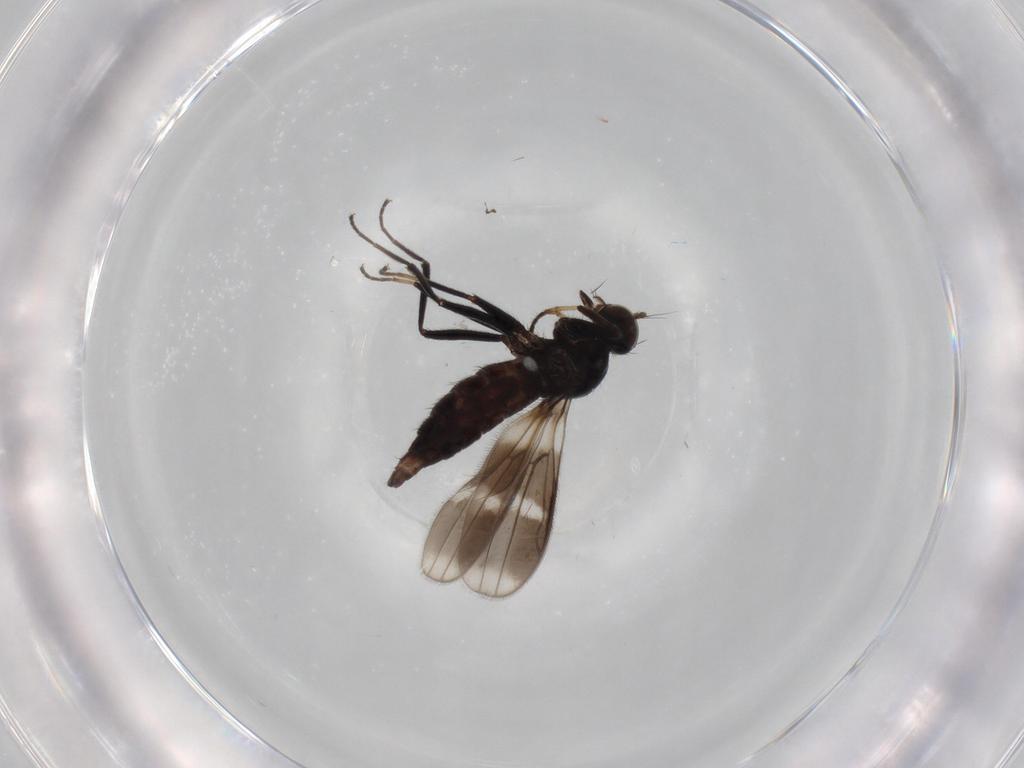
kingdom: Animalia
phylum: Arthropoda
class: Insecta
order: Diptera
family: Hybotidae
